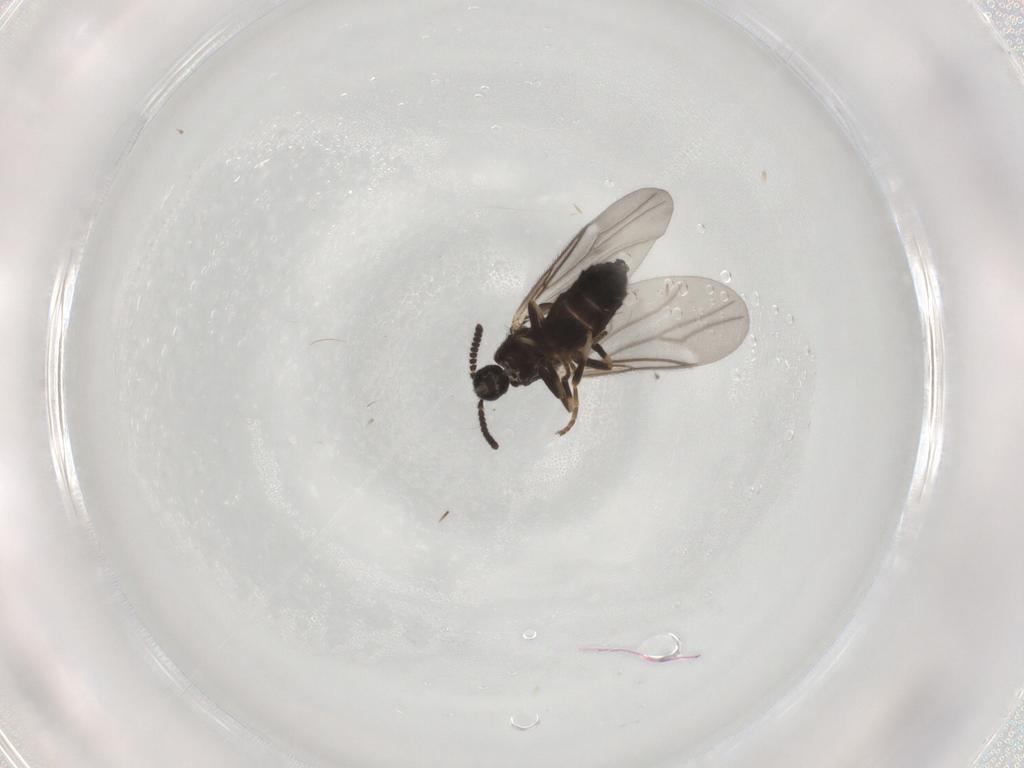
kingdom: Animalia
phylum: Arthropoda
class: Insecta
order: Diptera
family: Scatopsidae
